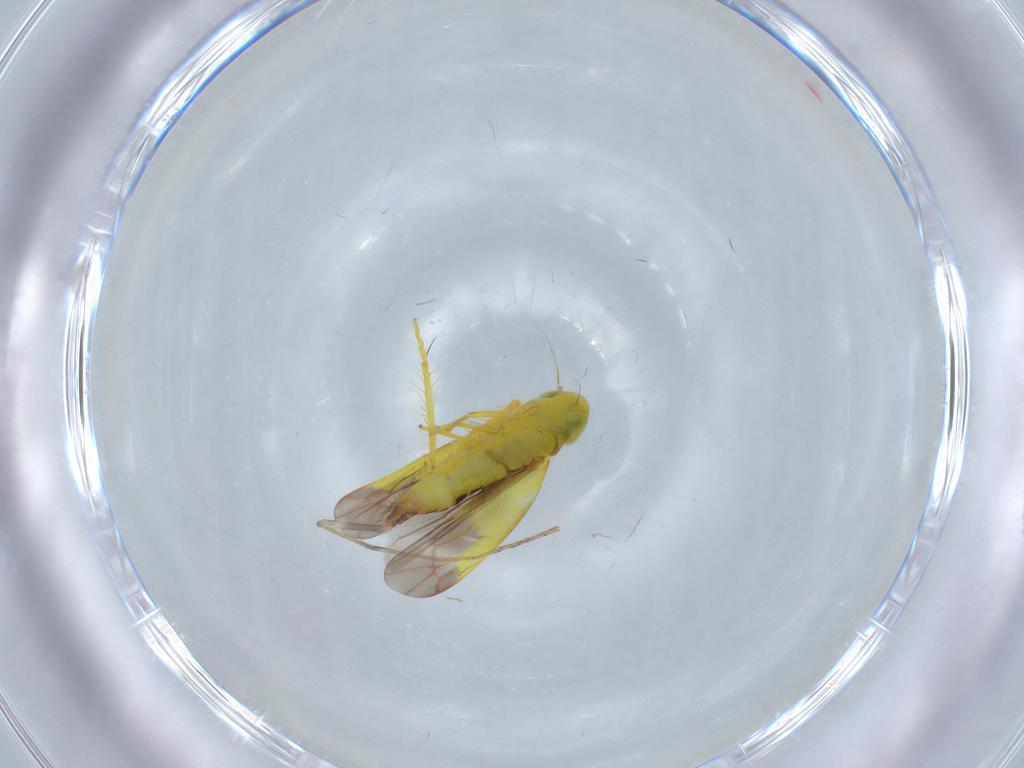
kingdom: Animalia
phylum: Arthropoda
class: Insecta
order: Hemiptera
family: Cicadellidae
